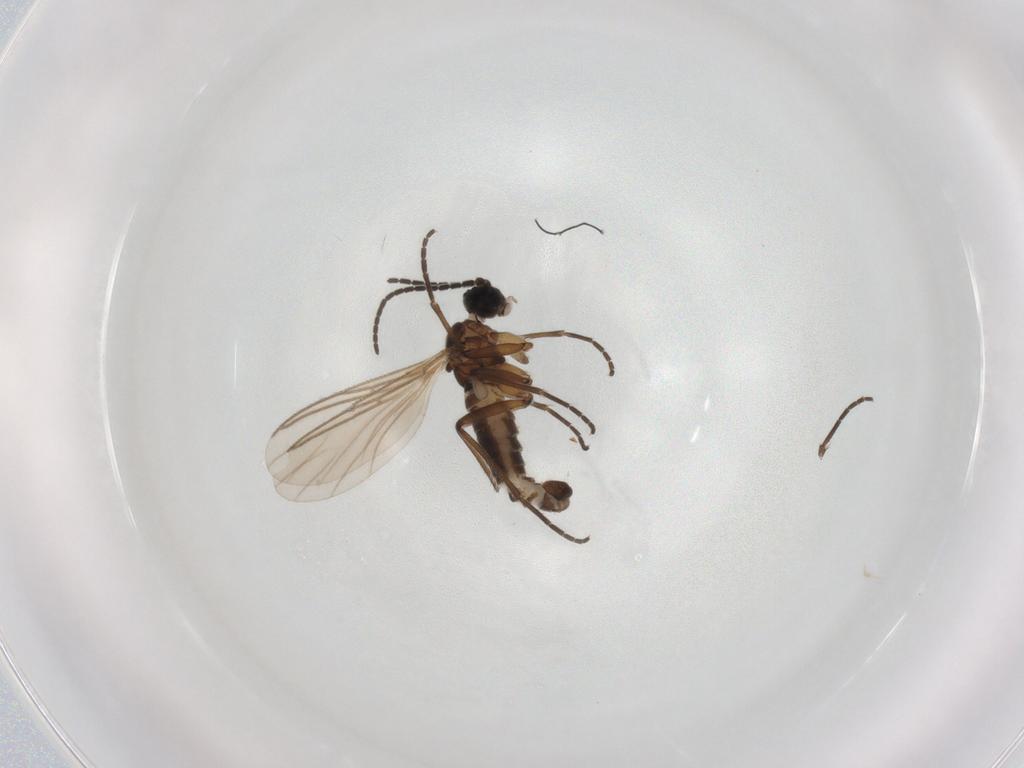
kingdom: Animalia
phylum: Arthropoda
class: Insecta
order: Diptera
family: Sciaridae
